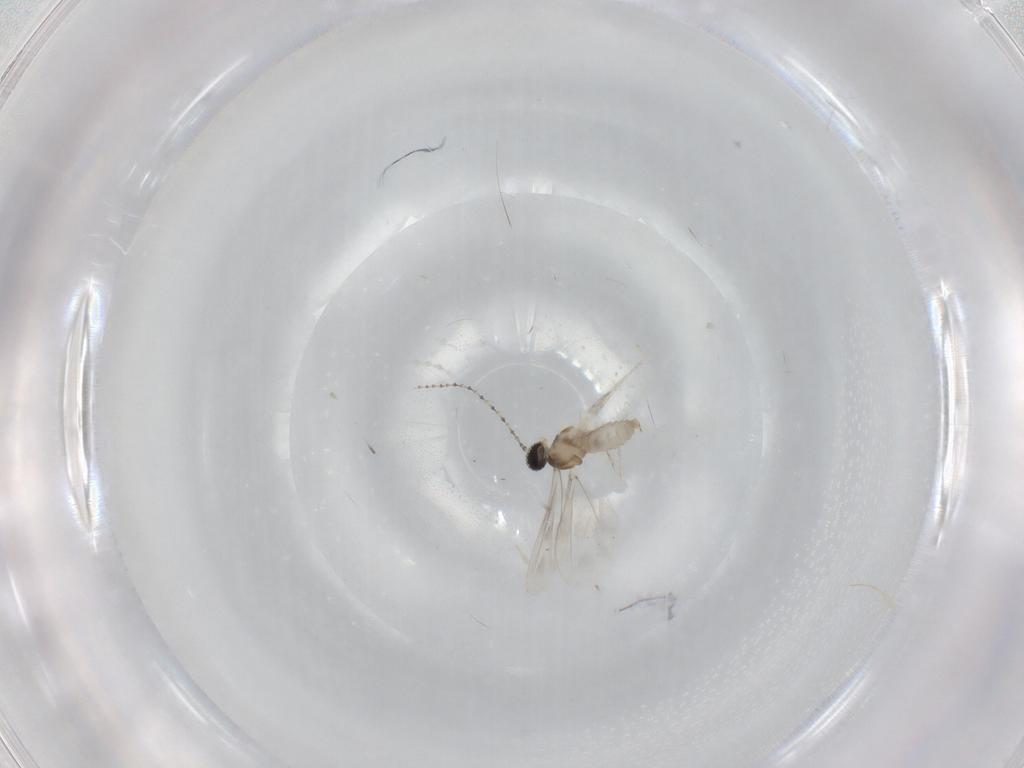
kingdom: Animalia
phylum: Arthropoda
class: Insecta
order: Diptera
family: Cecidomyiidae
